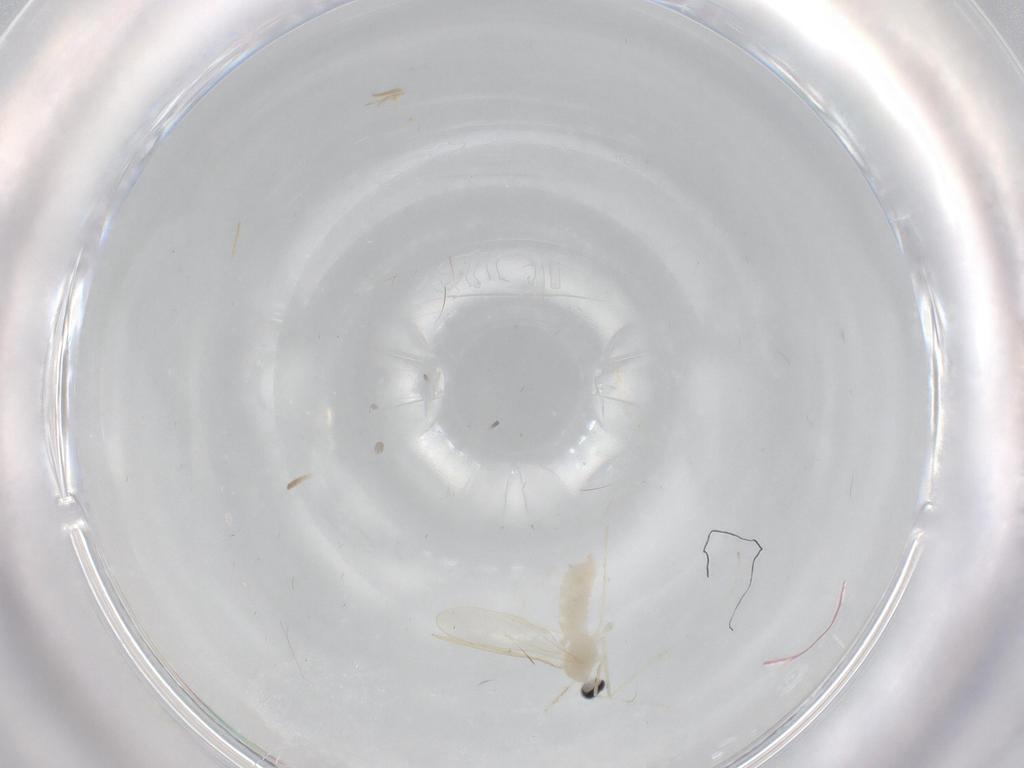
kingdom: Animalia
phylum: Arthropoda
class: Insecta
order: Diptera
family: Cecidomyiidae
